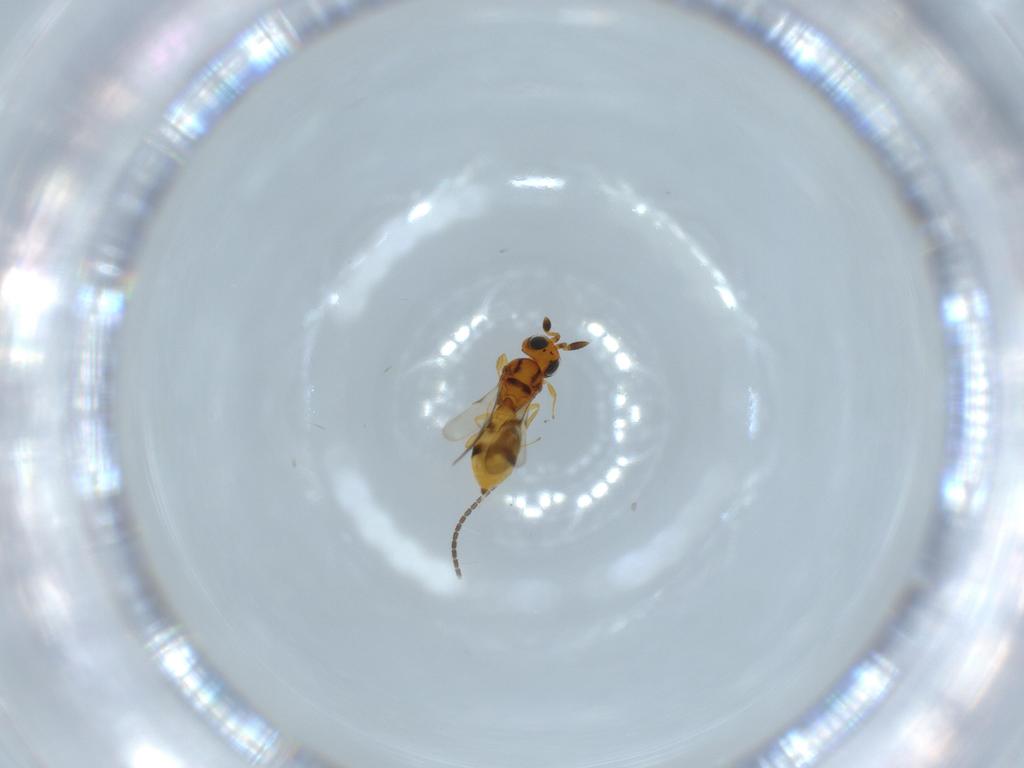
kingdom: Animalia
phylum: Arthropoda
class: Insecta
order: Hymenoptera
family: Scelionidae
